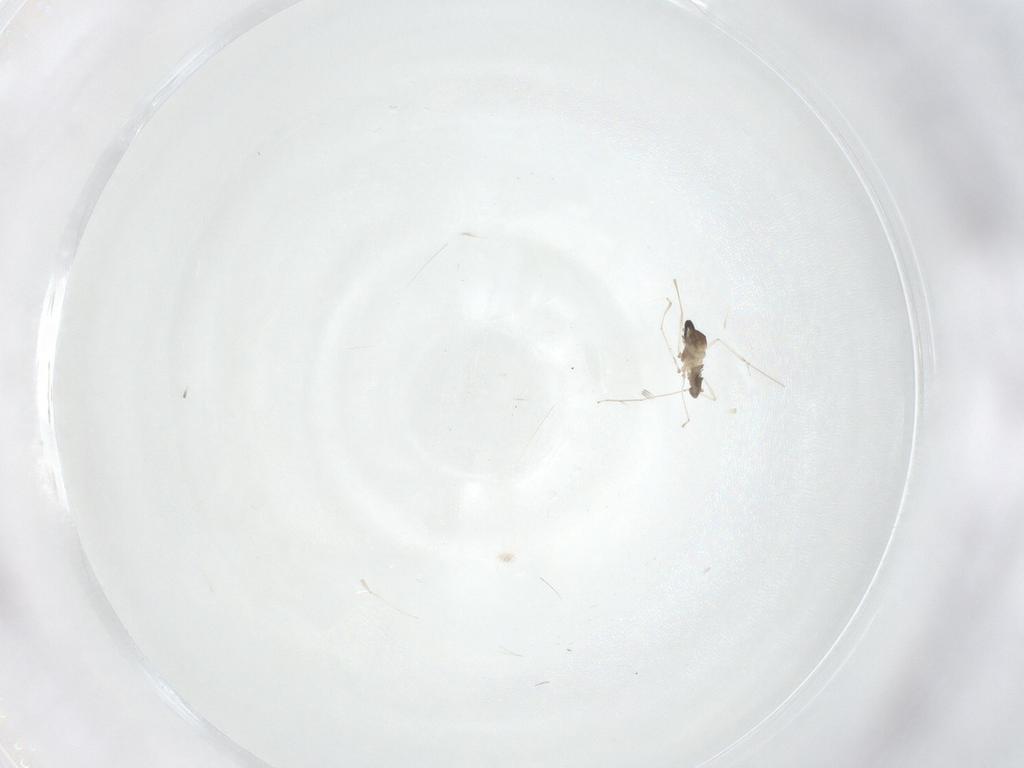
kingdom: Animalia
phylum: Arthropoda
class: Insecta
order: Diptera
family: Cecidomyiidae
